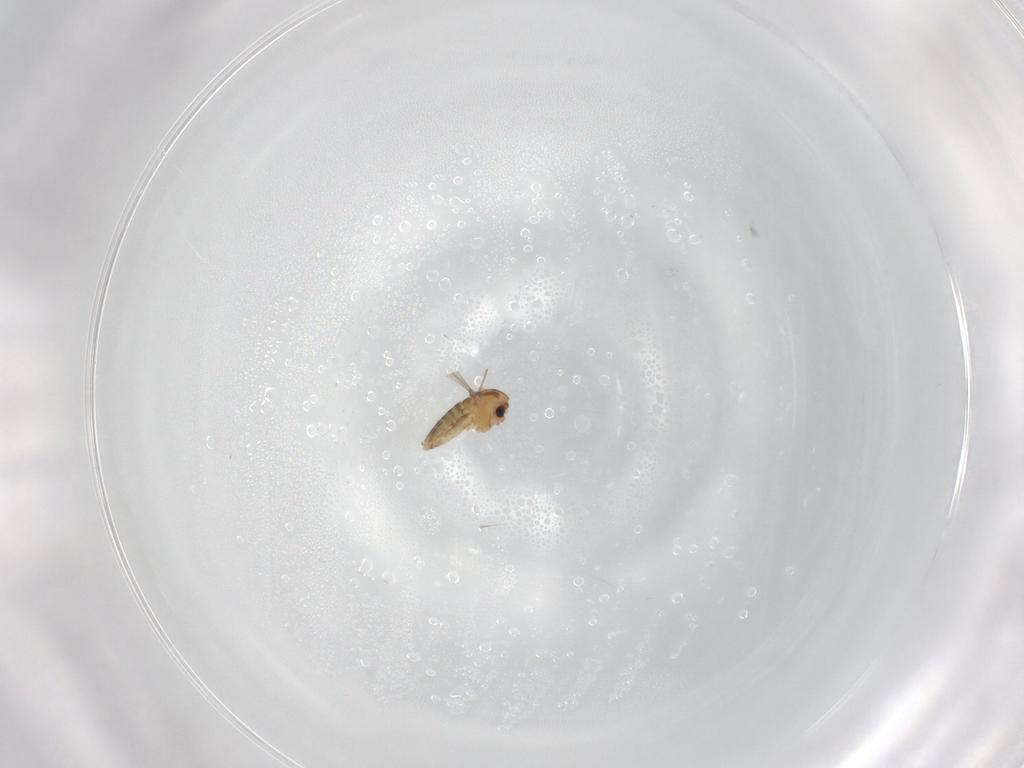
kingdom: Animalia
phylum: Arthropoda
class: Insecta
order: Diptera
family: Chironomidae
